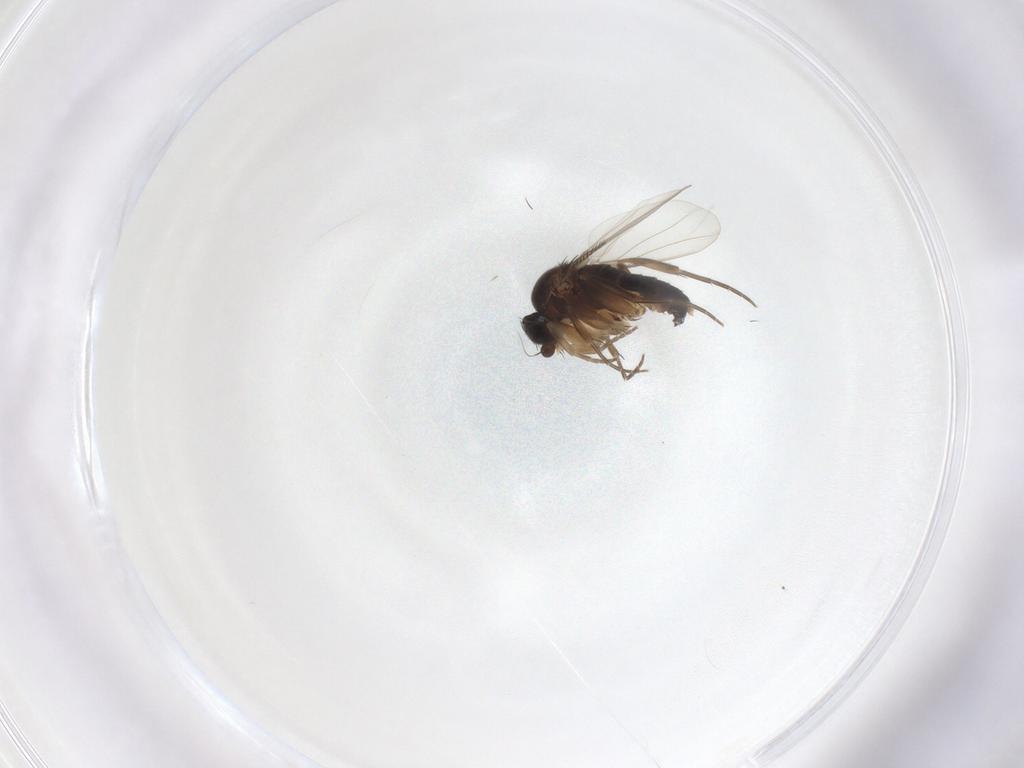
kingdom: Animalia
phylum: Arthropoda
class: Insecta
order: Diptera
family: Phoridae
